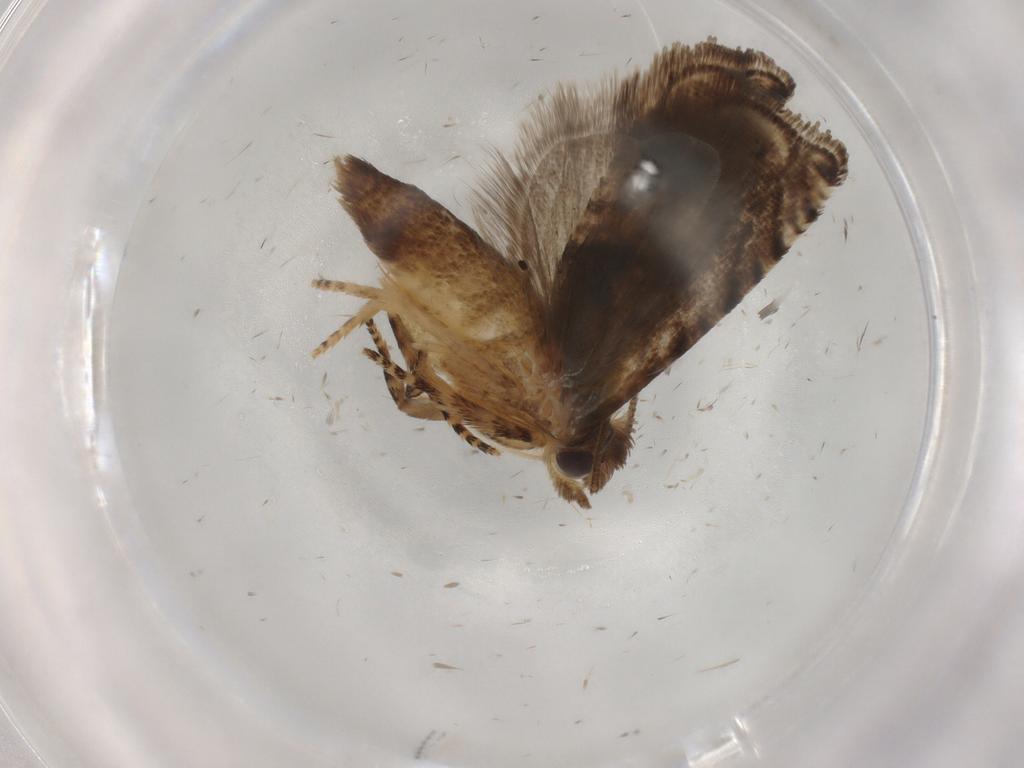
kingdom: Animalia
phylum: Arthropoda
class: Insecta
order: Lepidoptera
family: Tortricidae
